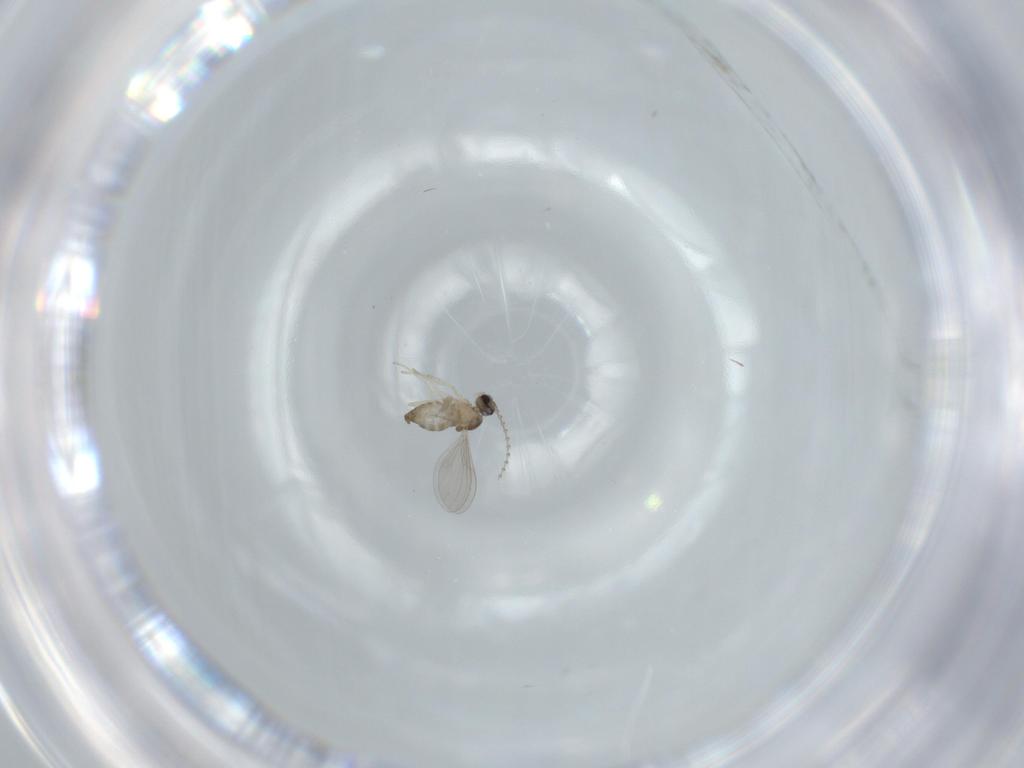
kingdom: Animalia
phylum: Arthropoda
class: Insecta
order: Diptera
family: Cecidomyiidae
